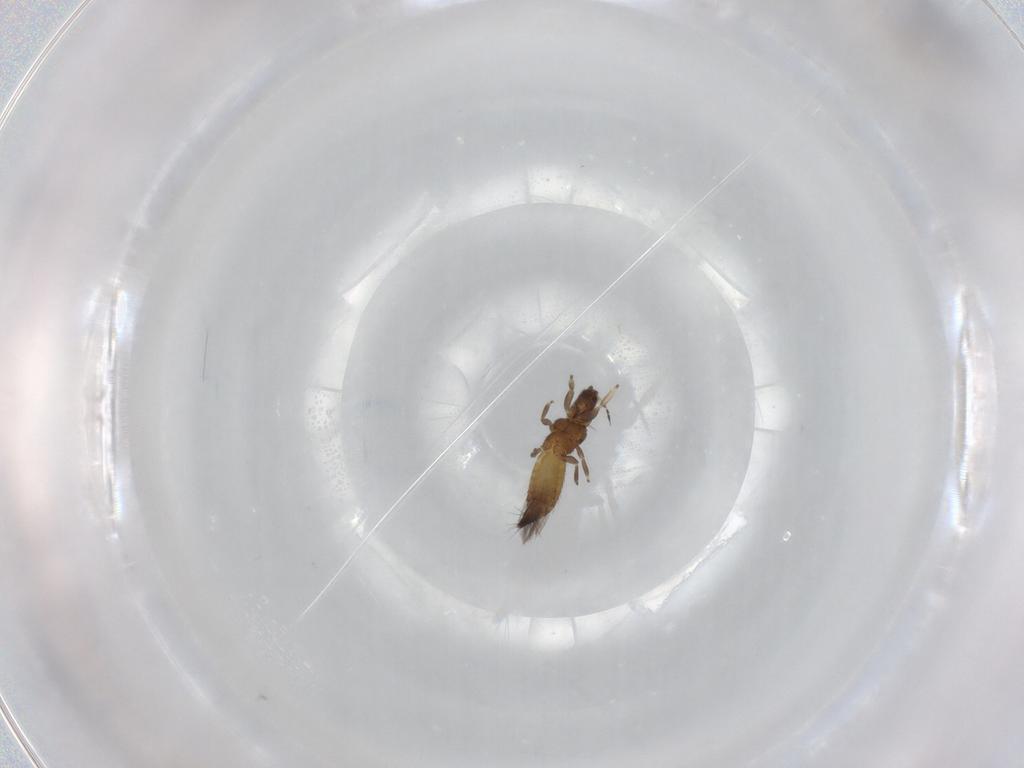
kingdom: Animalia
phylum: Arthropoda
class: Insecta
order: Thysanoptera
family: Thripidae
